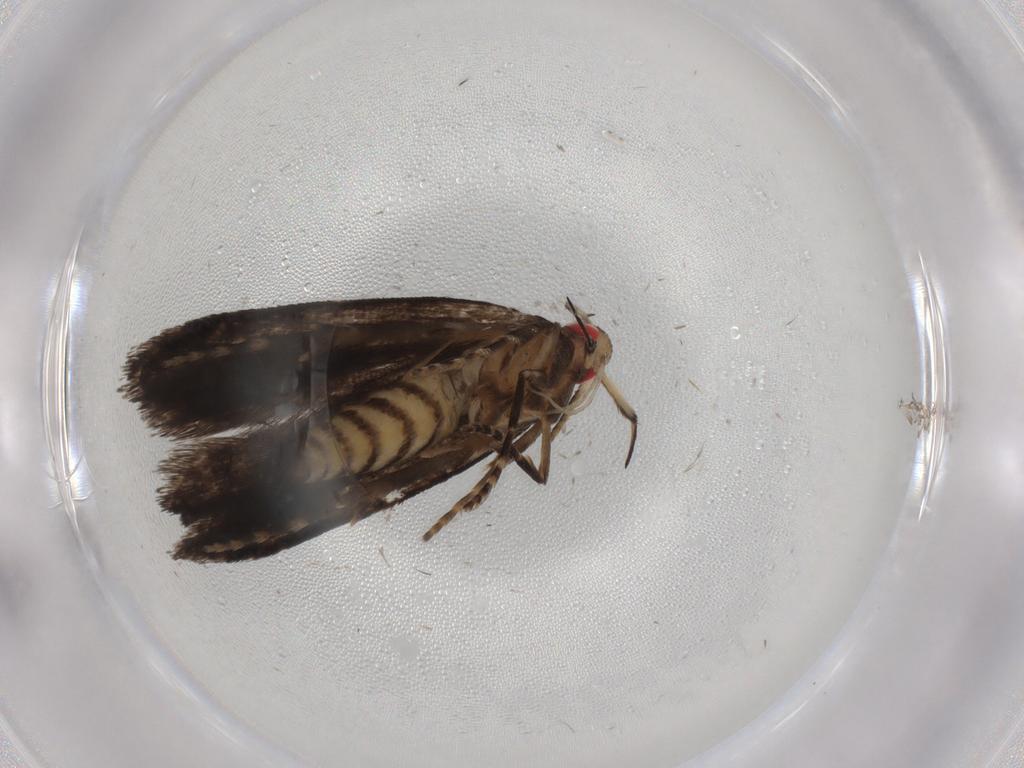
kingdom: Animalia
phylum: Arthropoda
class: Insecta
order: Lepidoptera
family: Gelechiidae
